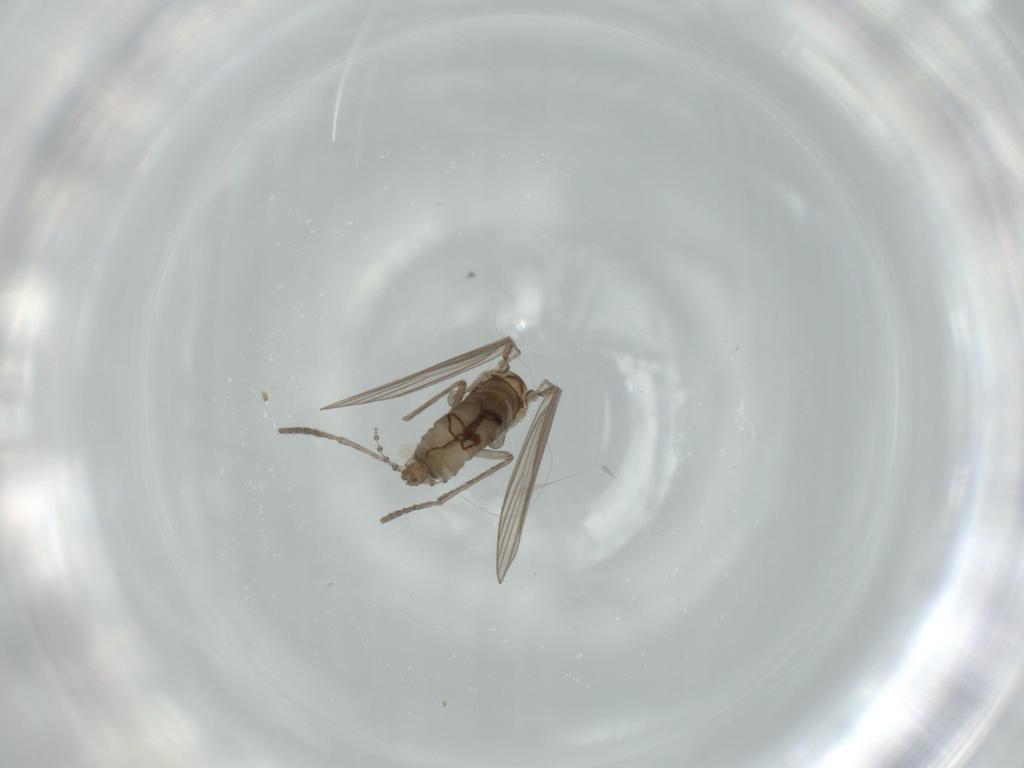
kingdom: Animalia
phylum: Arthropoda
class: Insecta
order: Diptera
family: Psychodidae
